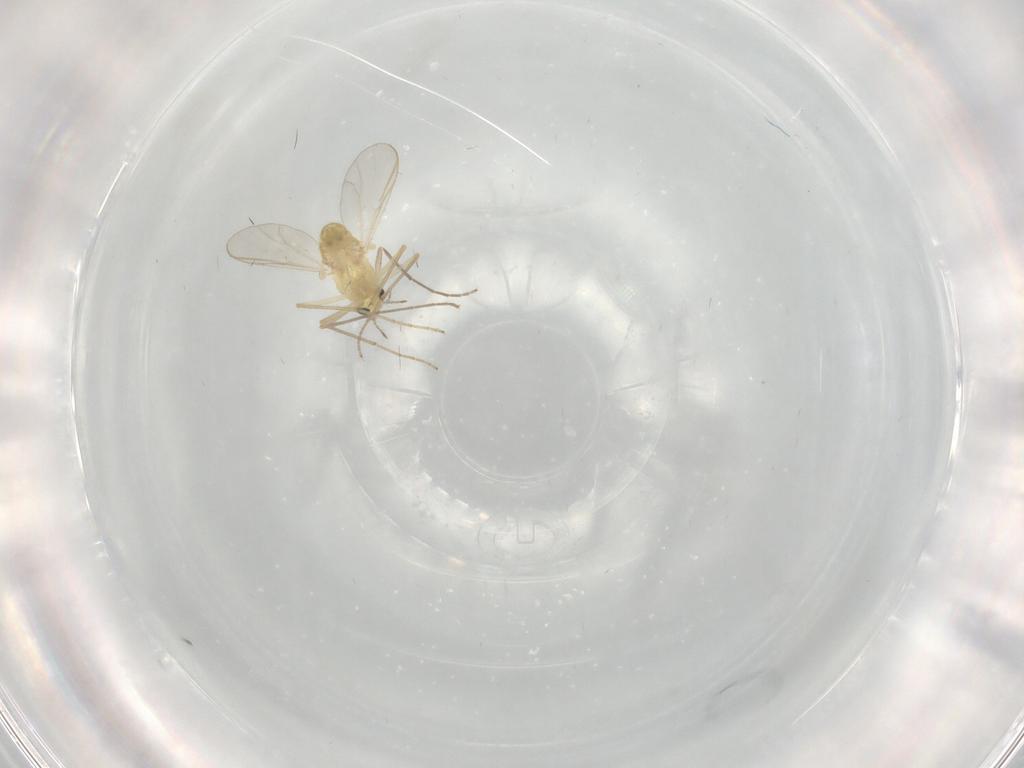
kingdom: Animalia
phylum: Arthropoda
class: Insecta
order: Diptera
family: Chironomidae
